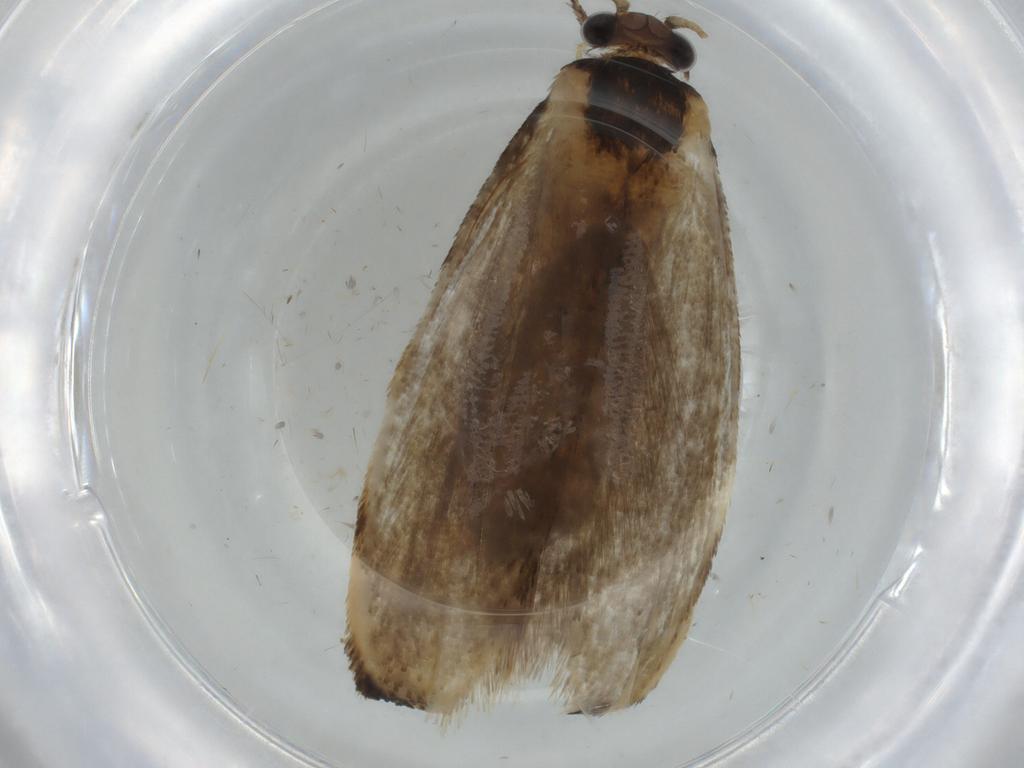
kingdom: Animalia
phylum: Arthropoda
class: Insecta
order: Lepidoptera
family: Tineidae
